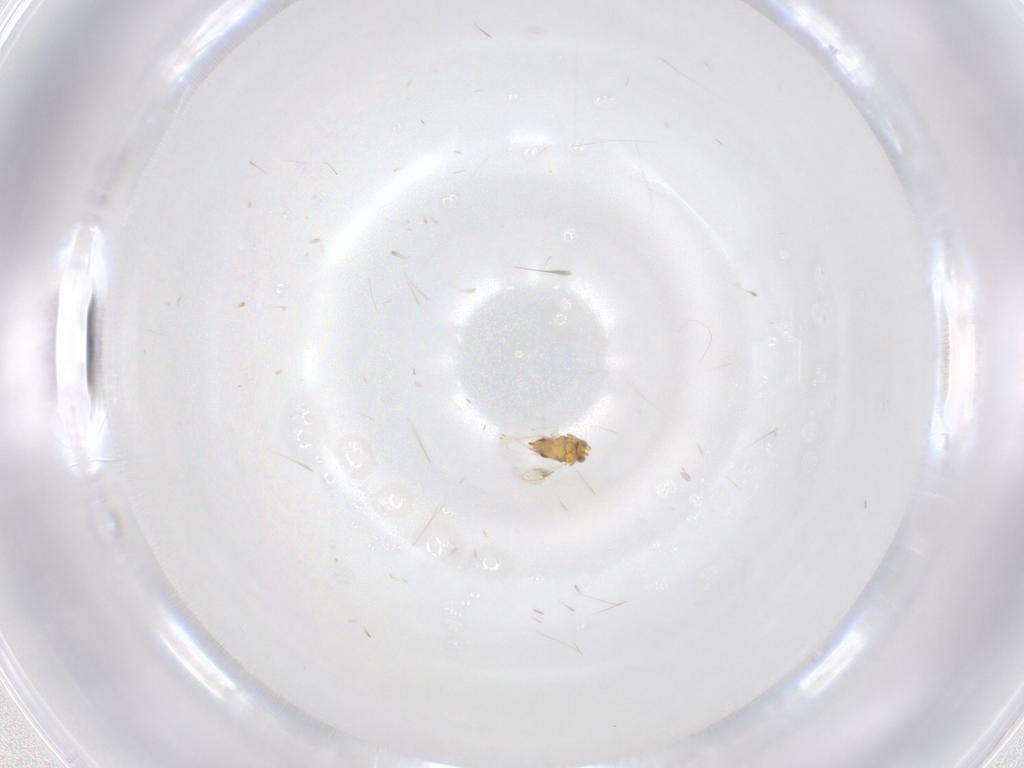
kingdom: Animalia
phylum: Arthropoda
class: Insecta
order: Hymenoptera
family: Aphelinidae
